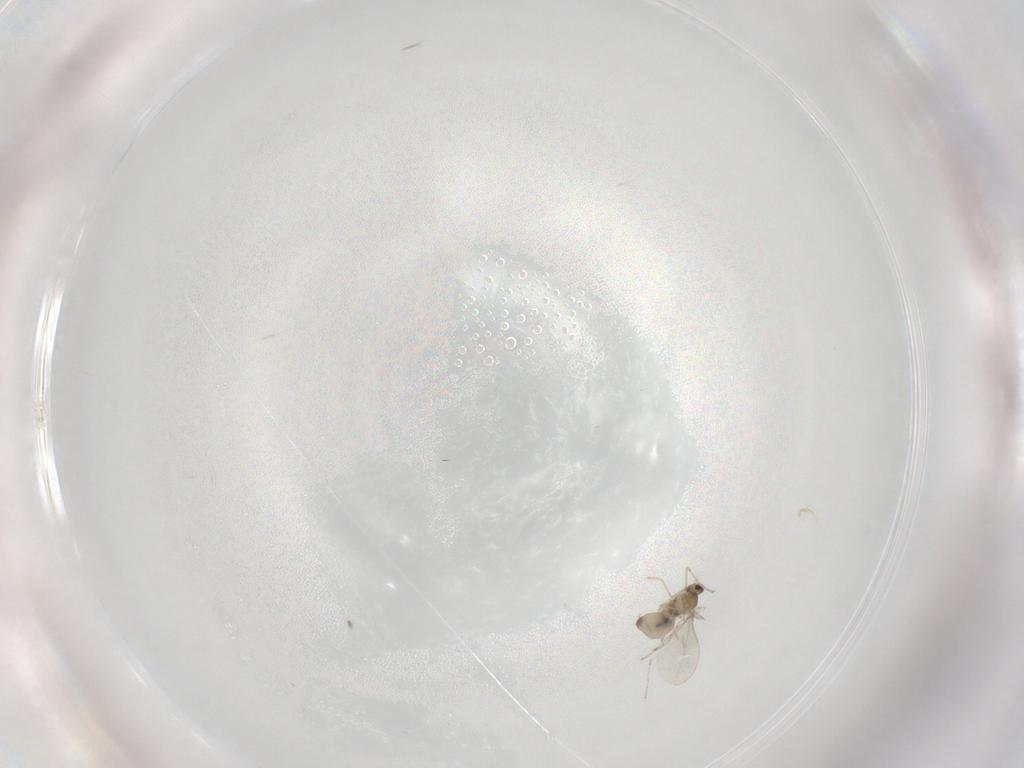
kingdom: Animalia
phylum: Arthropoda
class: Insecta
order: Diptera
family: Cecidomyiidae
